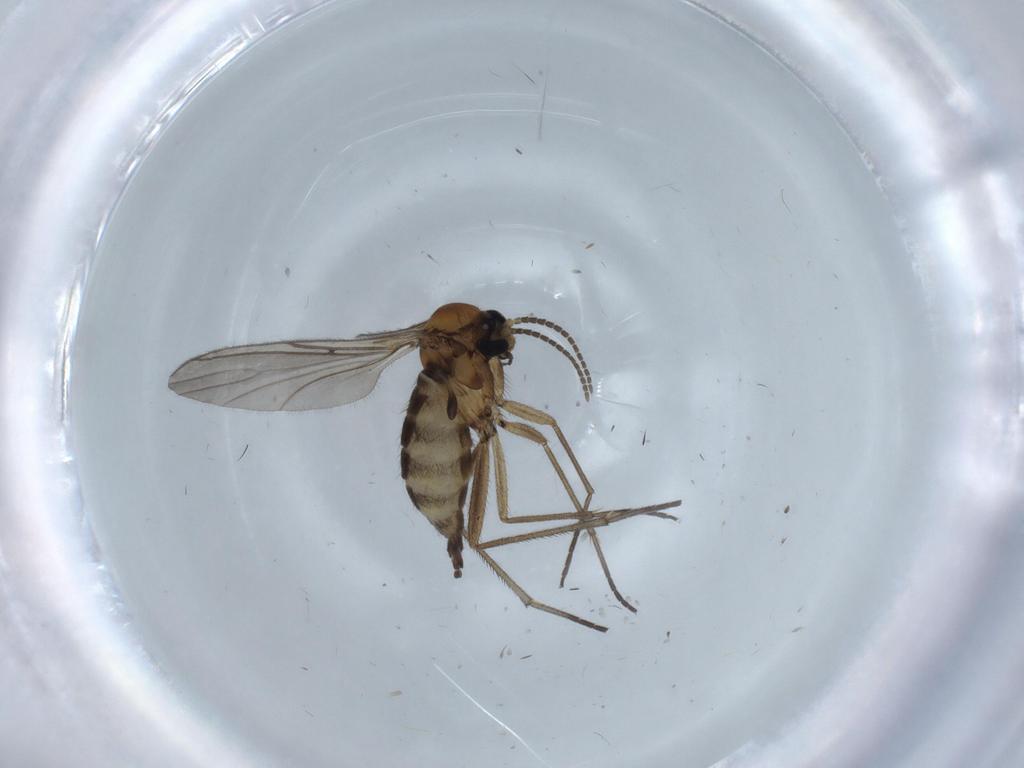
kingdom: Animalia
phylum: Arthropoda
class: Insecta
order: Diptera
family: Sciaridae
